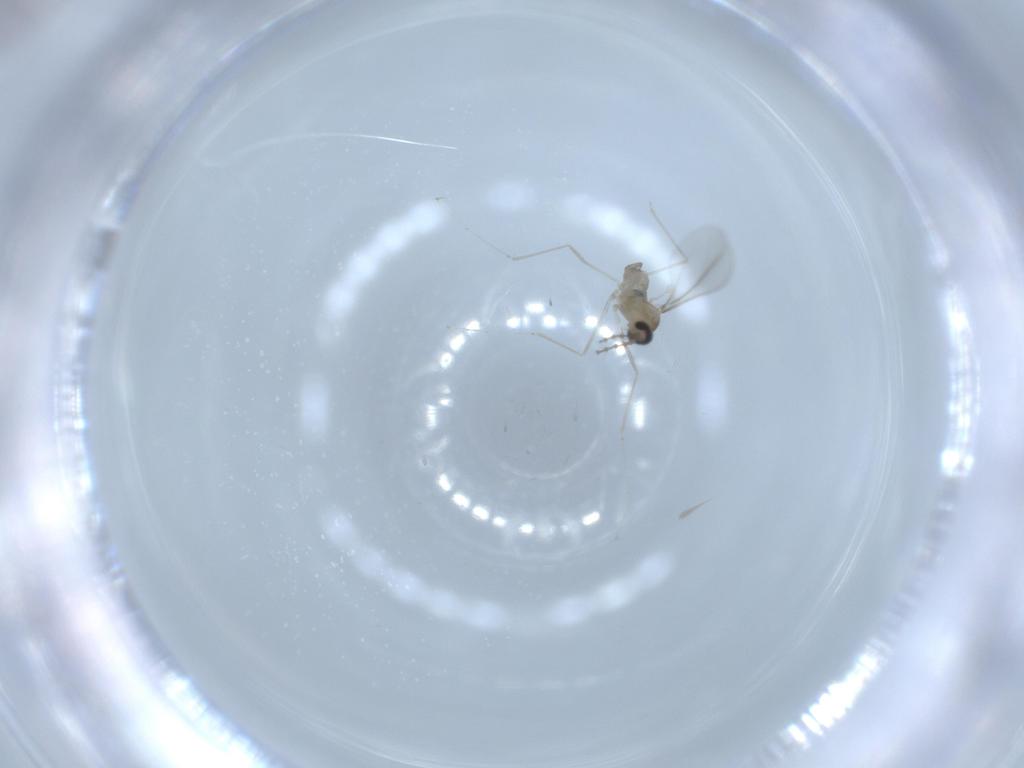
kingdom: Animalia
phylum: Arthropoda
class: Insecta
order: Diptera
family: Cecidomyiidae
